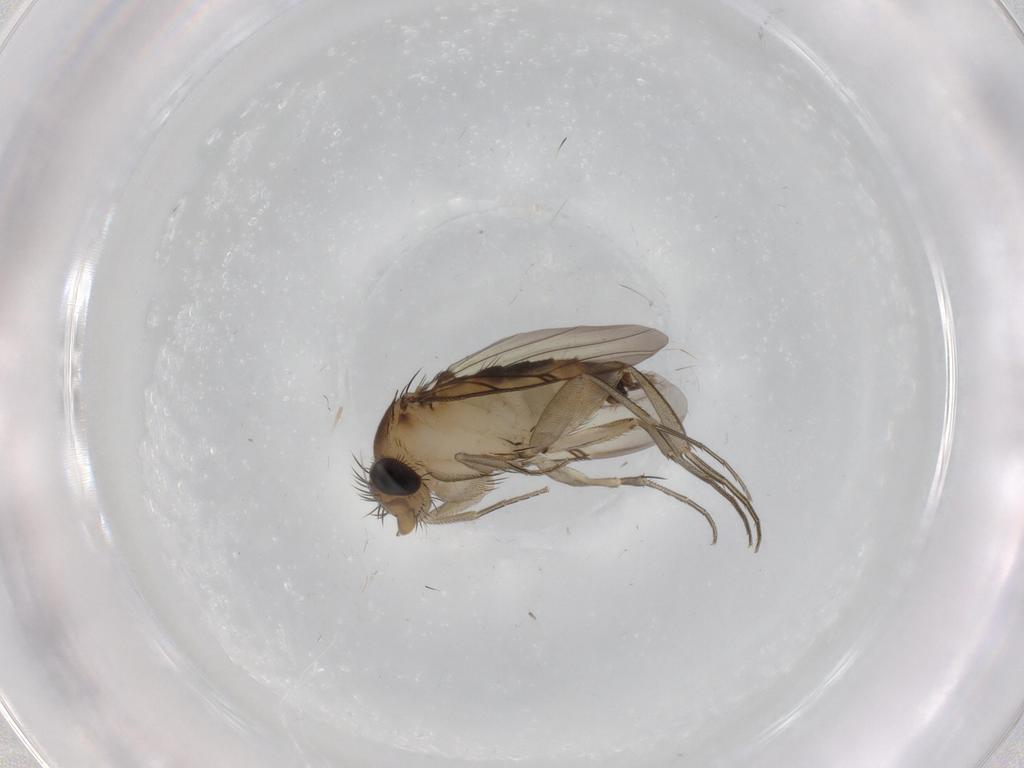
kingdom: Animalia
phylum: Arthropoda
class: Insecta
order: Diptera
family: Phoridae
